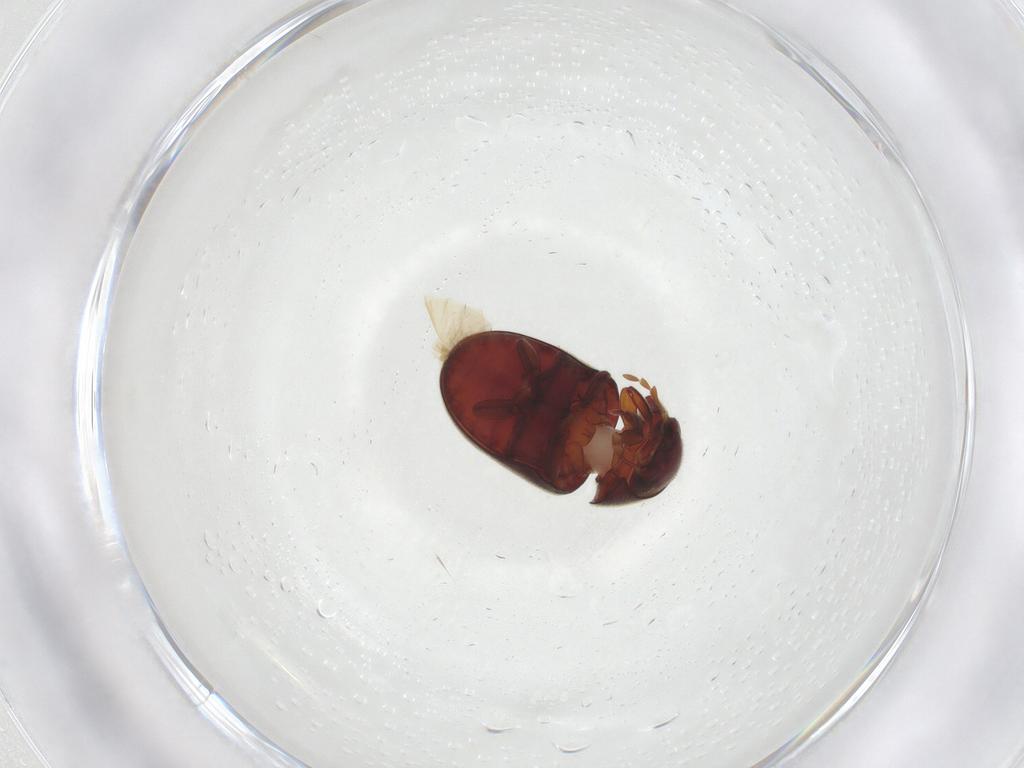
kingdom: Animalia
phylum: Arthropoda
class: Insecta
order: Coleoptera
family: Ptinidae
